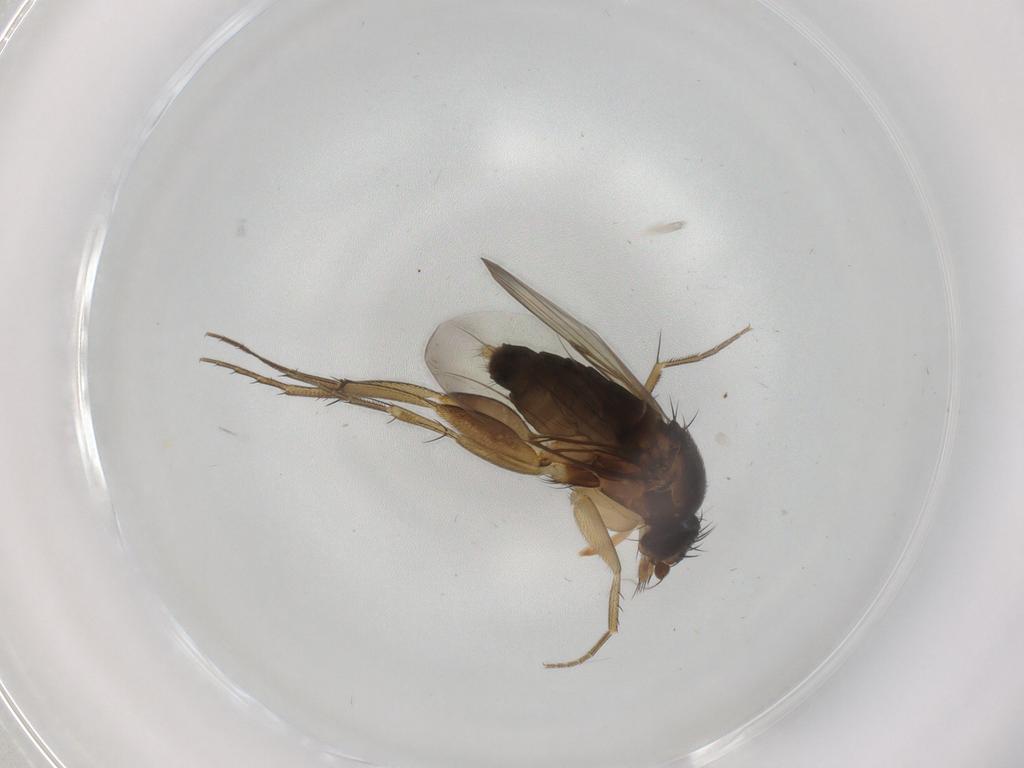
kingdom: Animalia
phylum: Arthropoda
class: Insecta
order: Diptera
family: Phoridae
